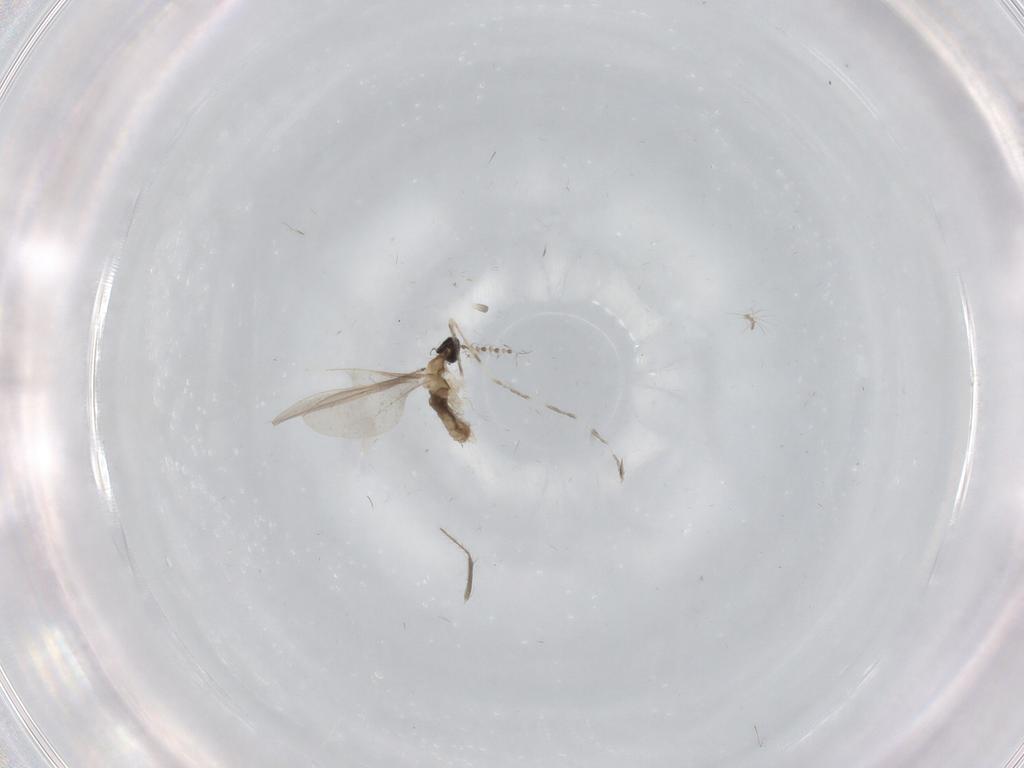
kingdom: Animalia
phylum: Arthropoda
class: Insecta
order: Diptera
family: Cecidomyiidae
